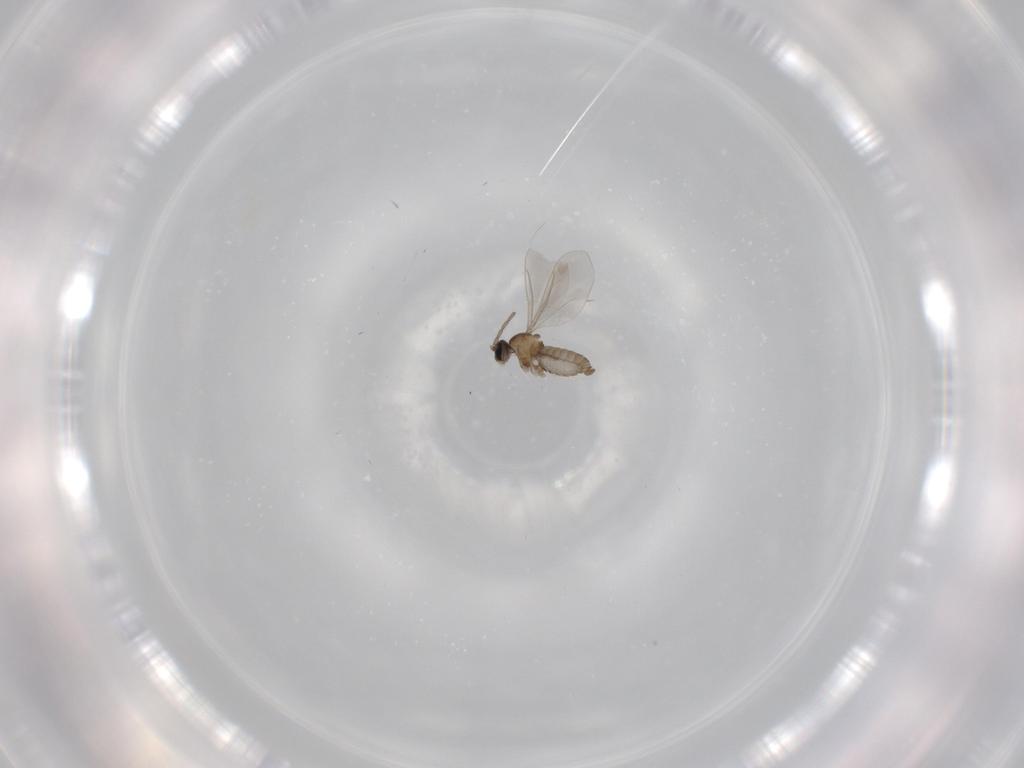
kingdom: Animalia
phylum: Arthropoda
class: Insecta
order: Diptera
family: Cecidomyiidae
